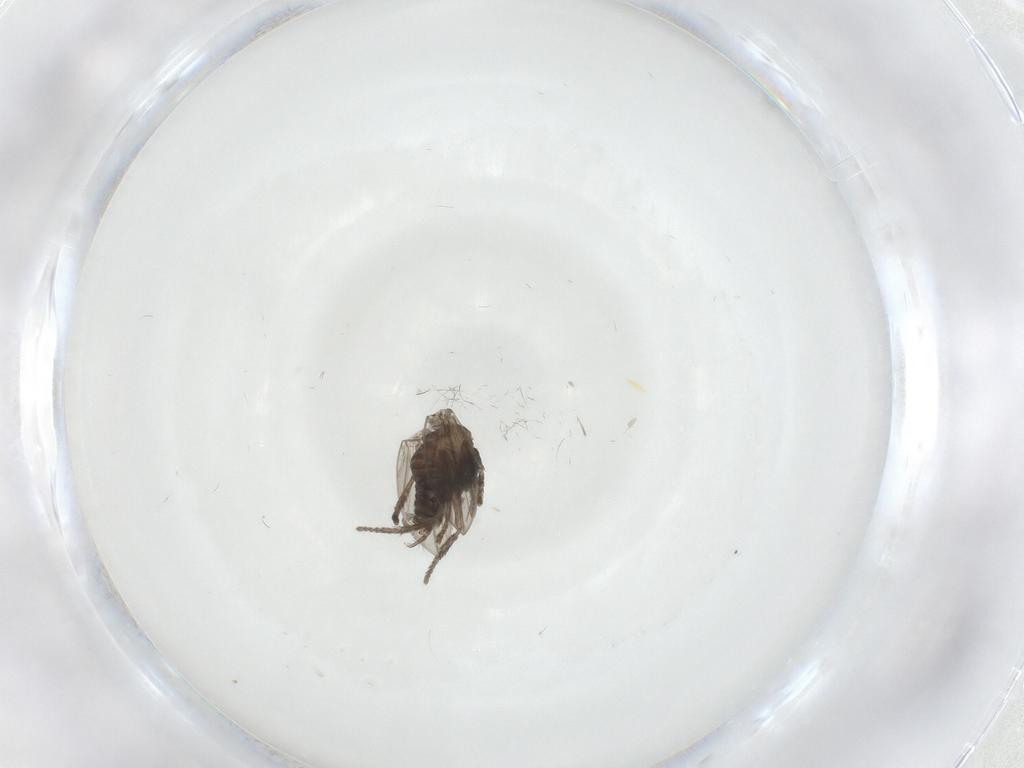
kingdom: Animalia
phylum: Arthropoda
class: Insecta
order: Diptera
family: Psychodidae
